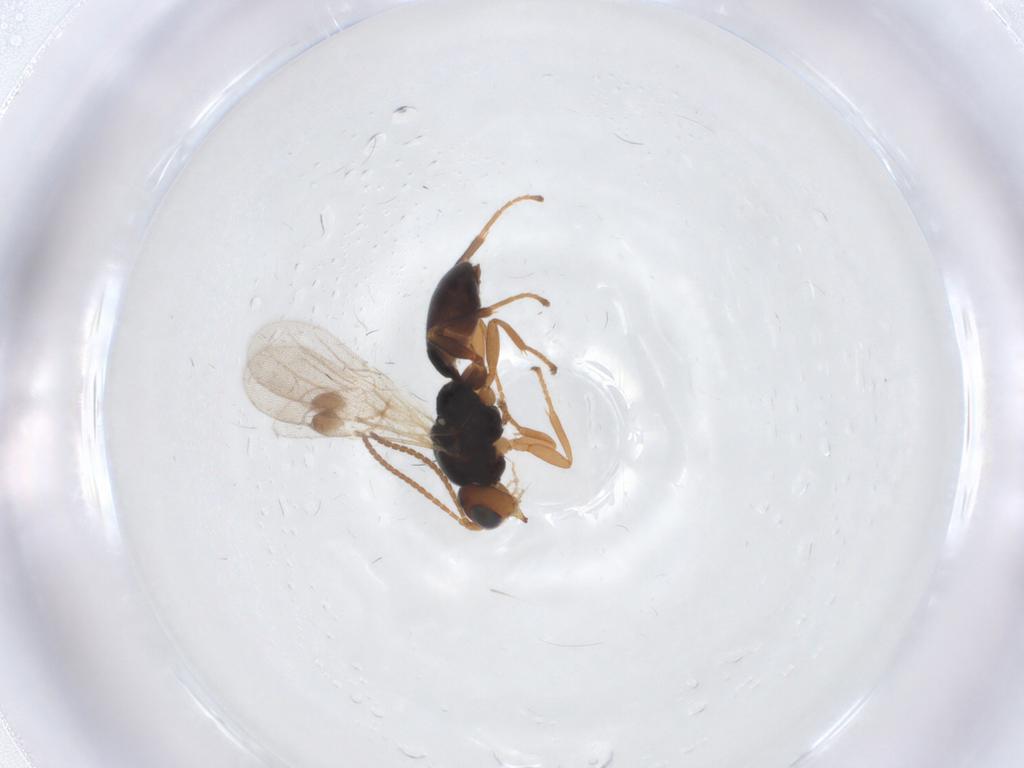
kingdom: Animalia
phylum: Arthropoda
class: Insecta
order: Hymenoptera
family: Braconidae
